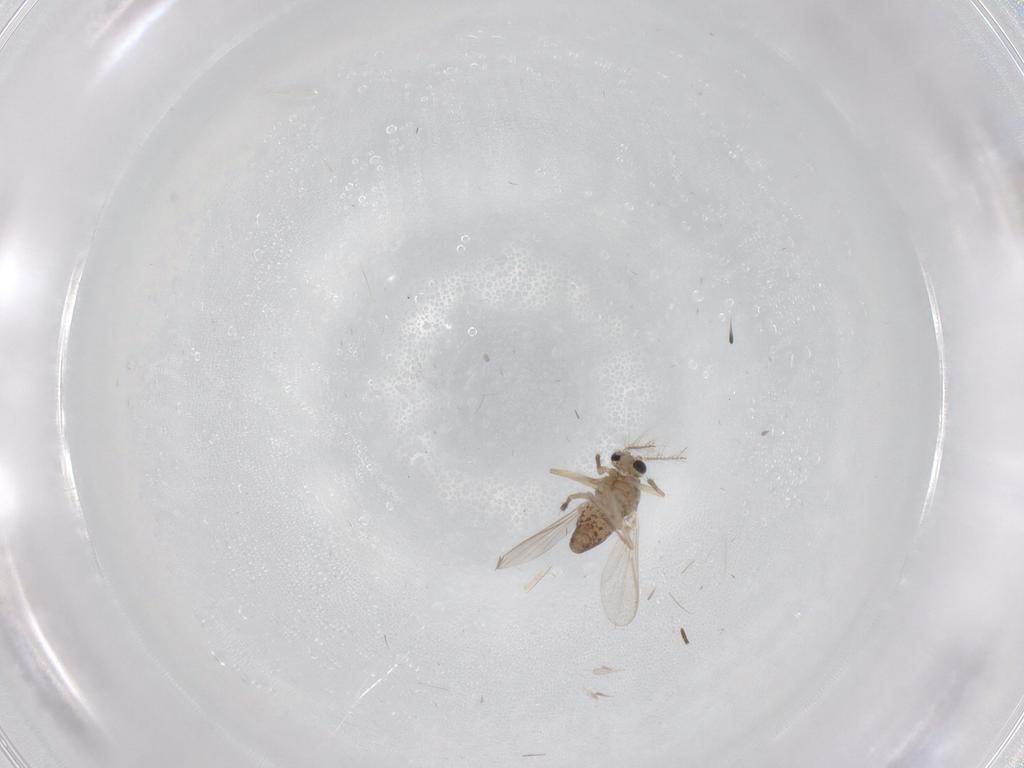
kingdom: Animalia
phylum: Arthropoda
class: Insecta
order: Diptera
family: Chironomidae
